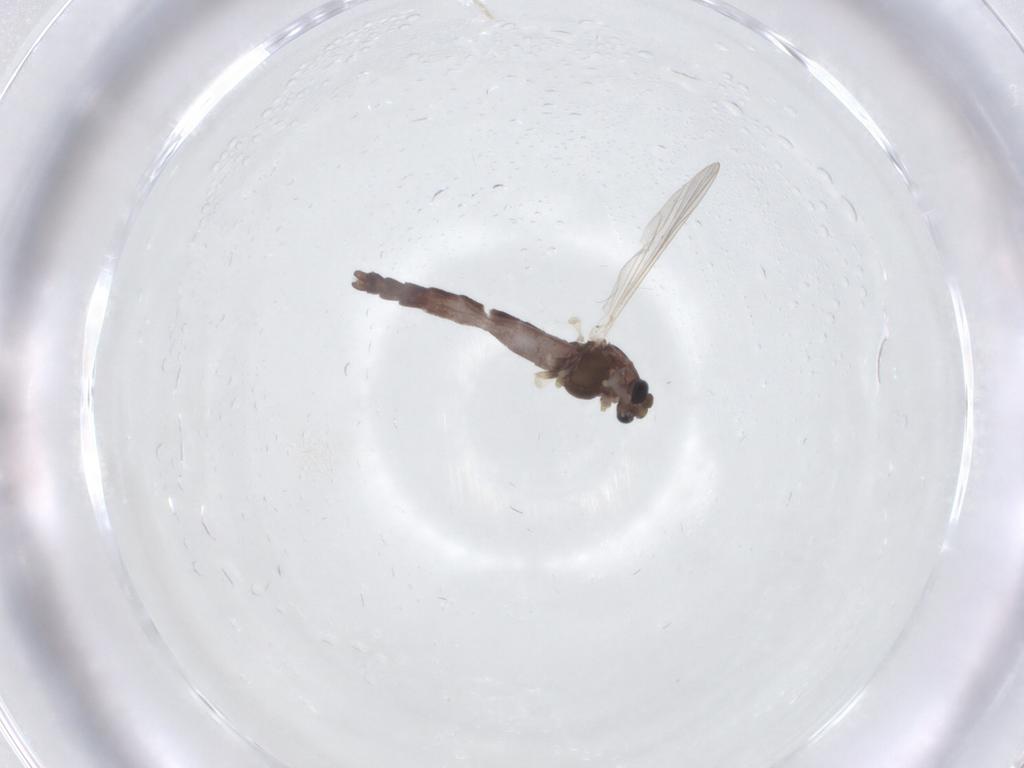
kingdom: Animalia
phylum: Arthropoda
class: Insecta
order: Diptera
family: Chironomidae
